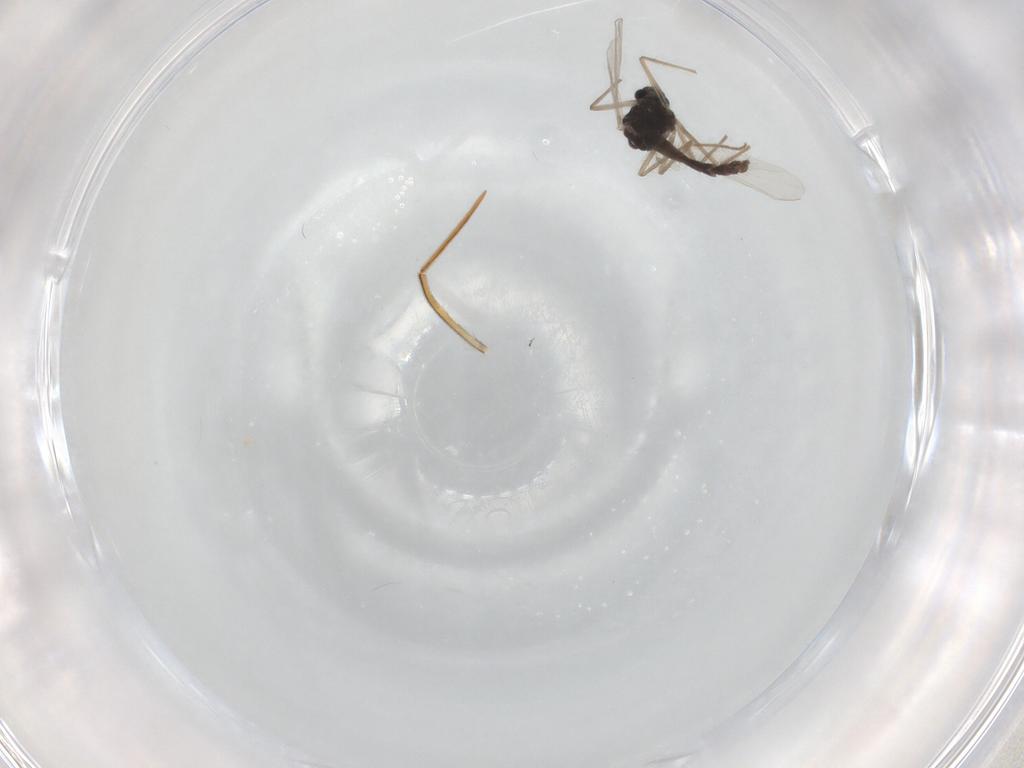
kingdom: Animalia
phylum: Arthropoda
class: Insecta
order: Diptera
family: Chironomidae
